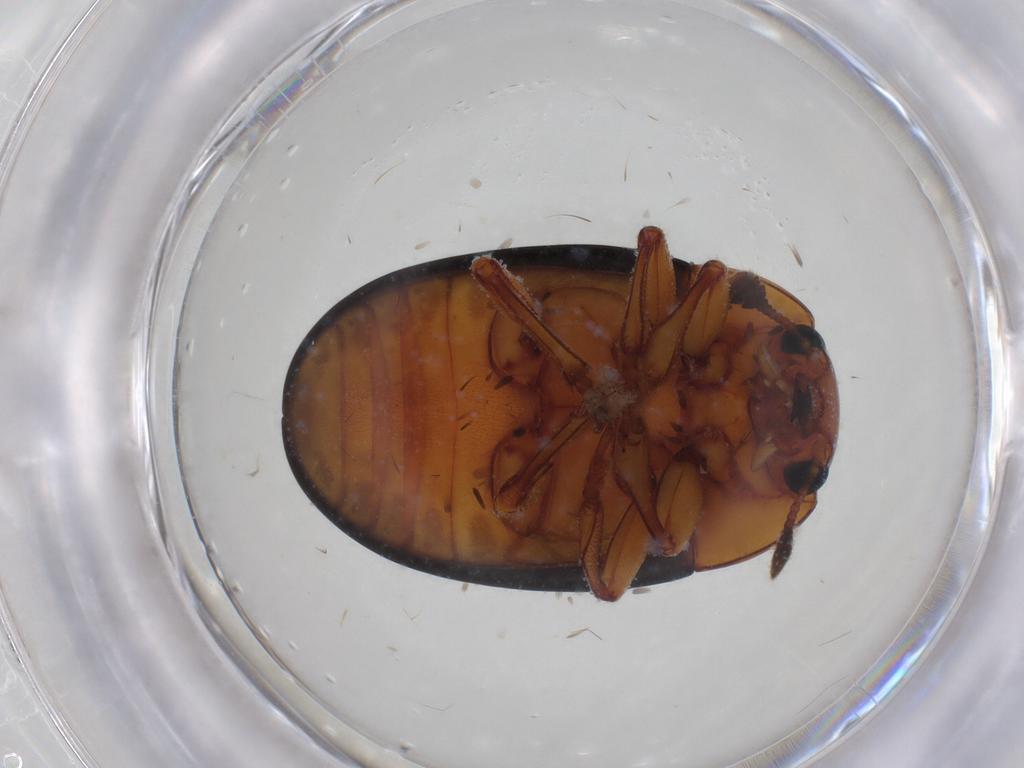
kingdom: Animalia
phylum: Arthropoda
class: Insecta
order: Coleoptera
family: Erotylidae
